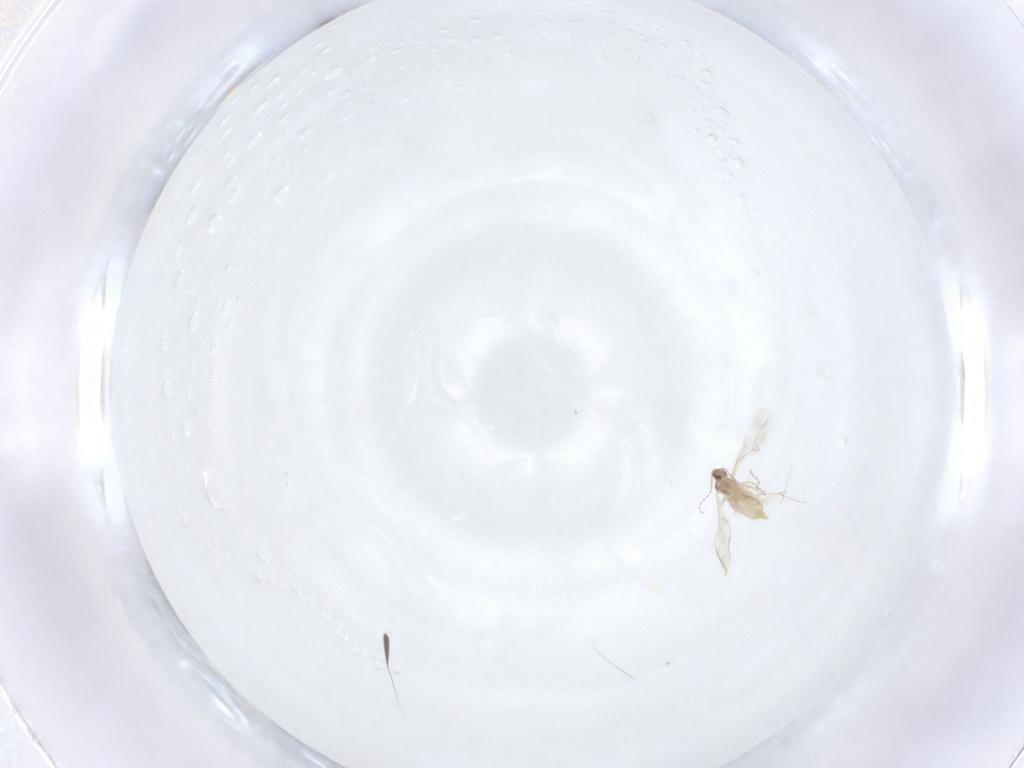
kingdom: Animalia
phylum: Arthropoda
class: Insecta
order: Diptera
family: Cecidomyiidae
